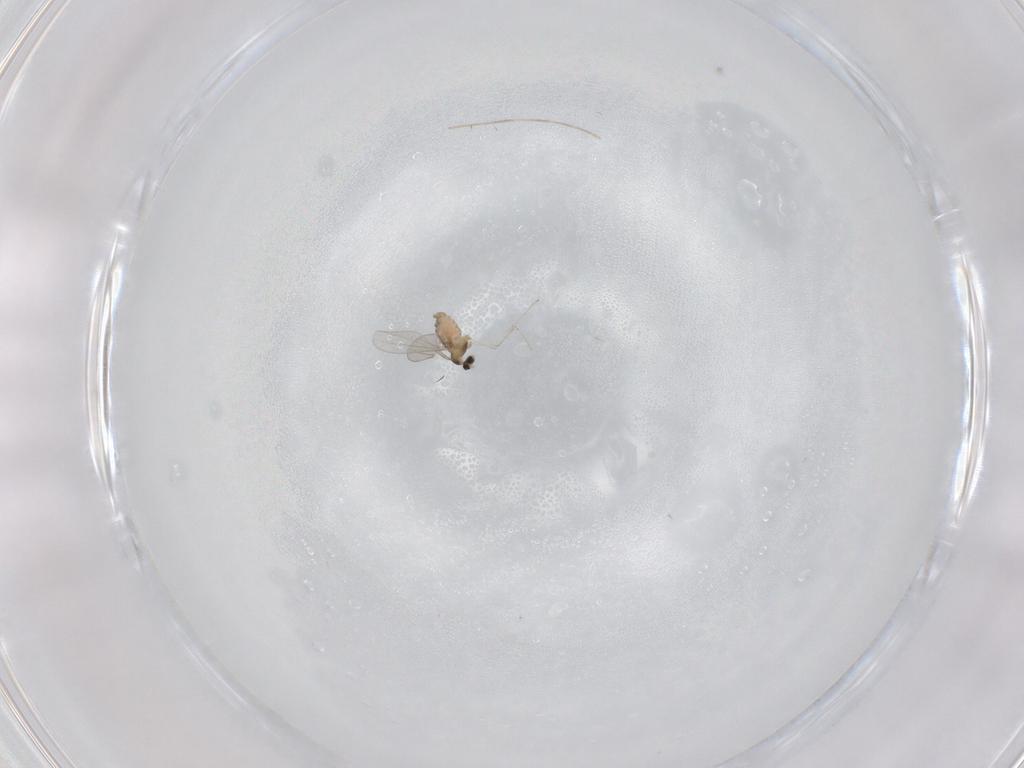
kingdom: Animalia
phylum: Arthropoda
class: Insecta
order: Diptera
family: Cecidomyiidae
